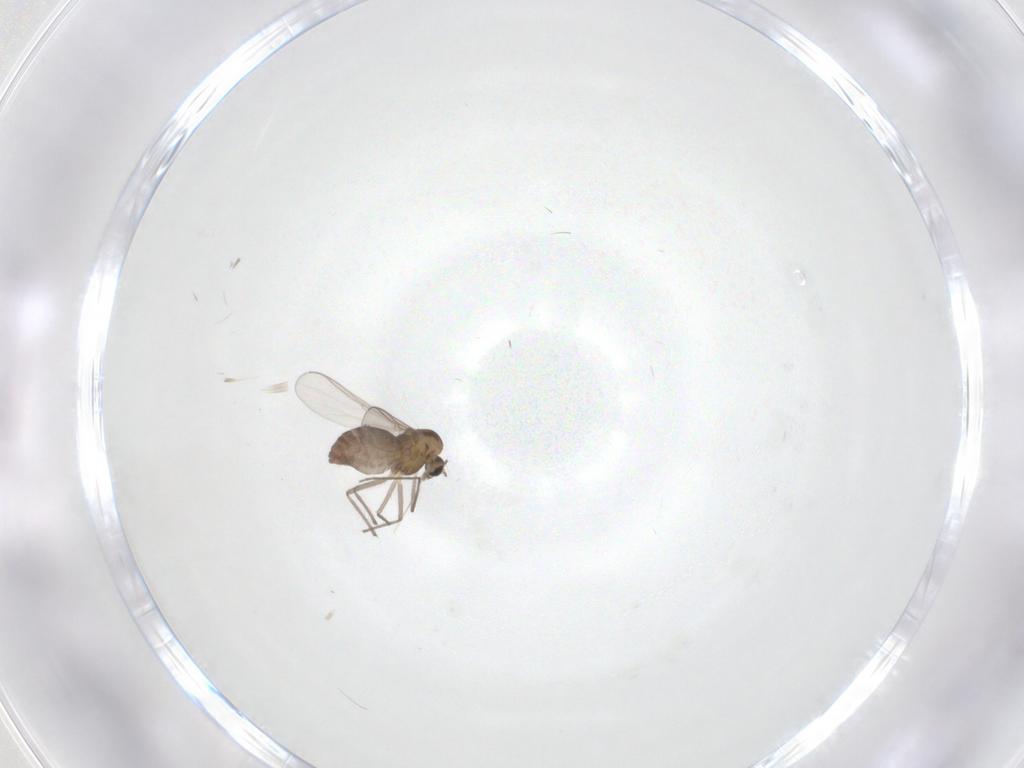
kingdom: Animalia
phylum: Arthropoda
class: Insecta
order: Diptera
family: Chironomidae
